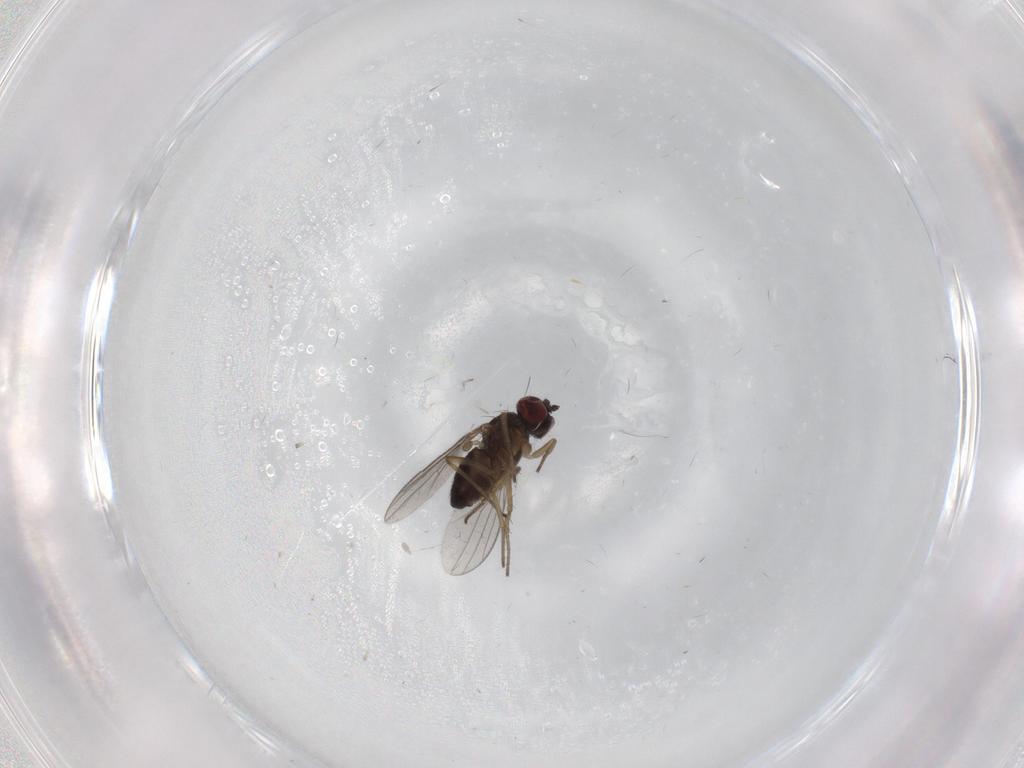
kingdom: Animalia
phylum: Arthropoda
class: Insecta
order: Diptera
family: Dolichopodidae
